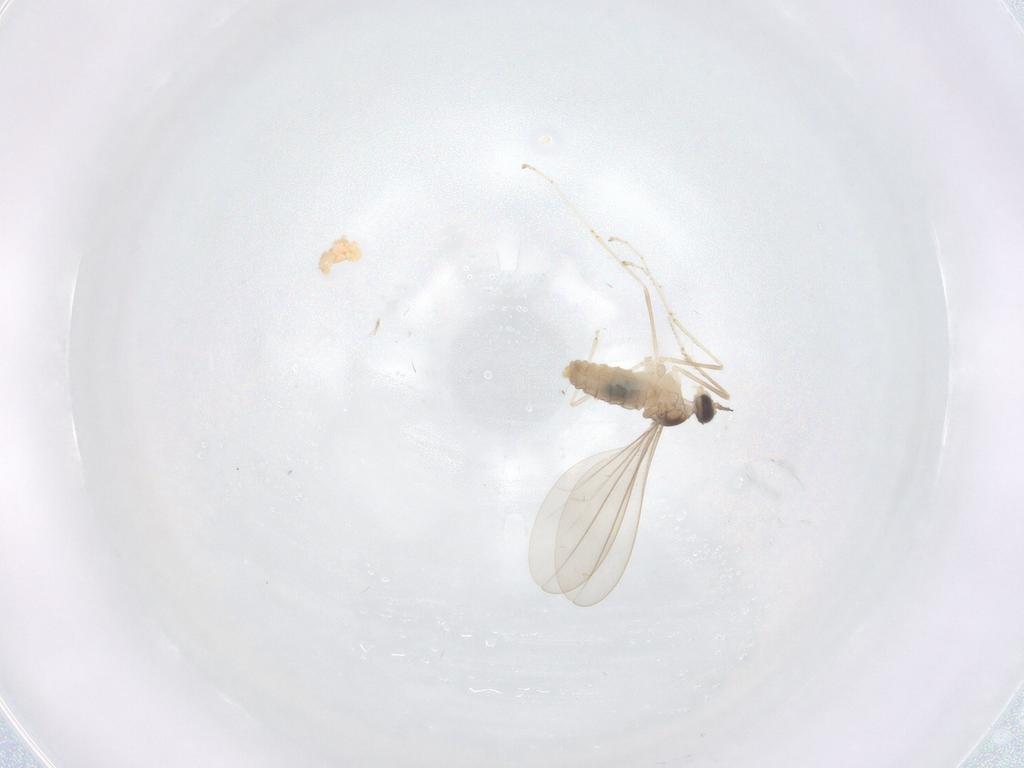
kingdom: Animalia
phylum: Arthropoda
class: Insecta
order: Diptera
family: Cecidomyiidae
